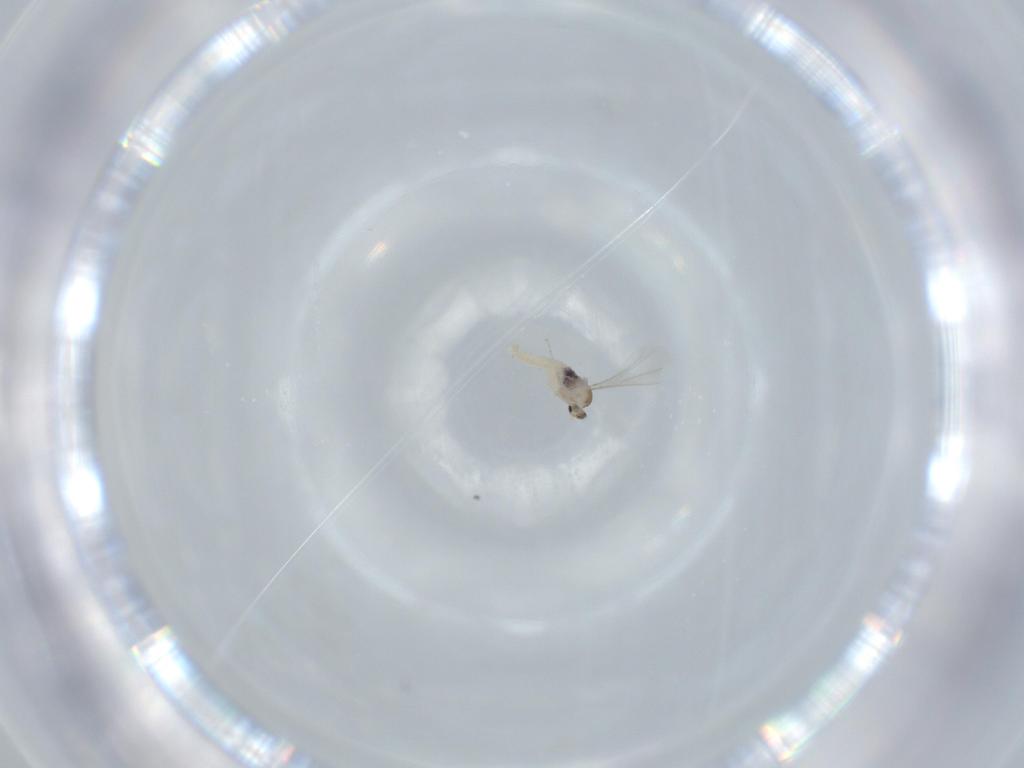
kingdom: Animalia
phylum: Arthropoda
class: Insecta
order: Diptera
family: Cecidomyiidae
